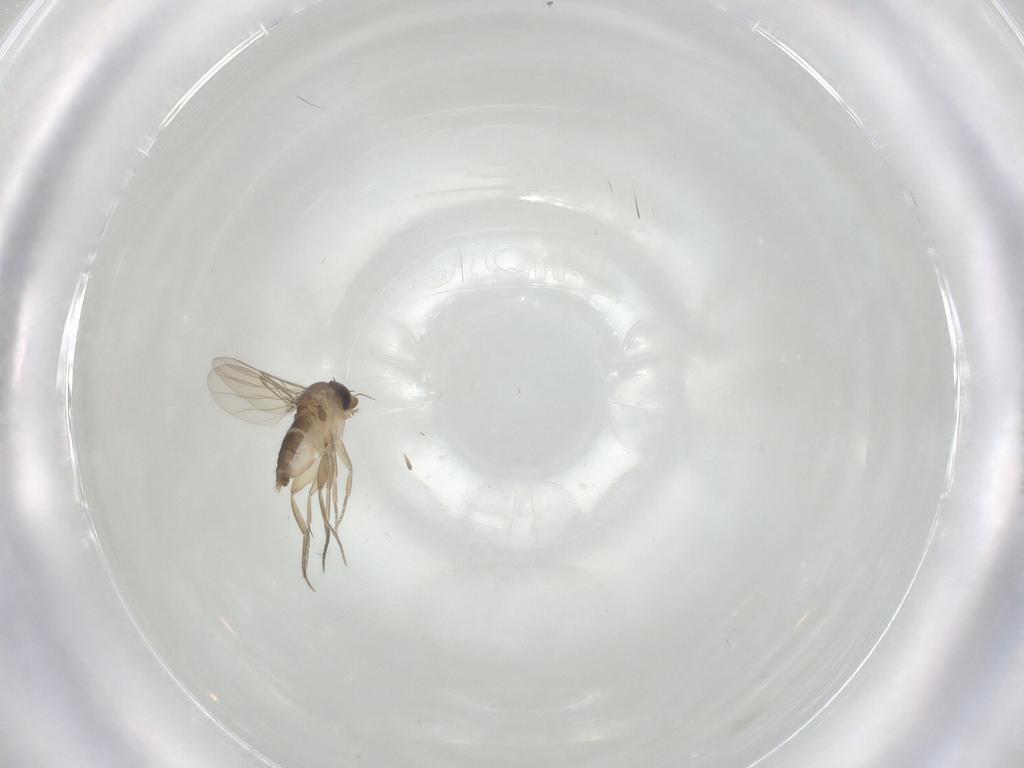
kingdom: Animalia
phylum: Arthropoda
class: Insecta
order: Diptera
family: Phoridae
